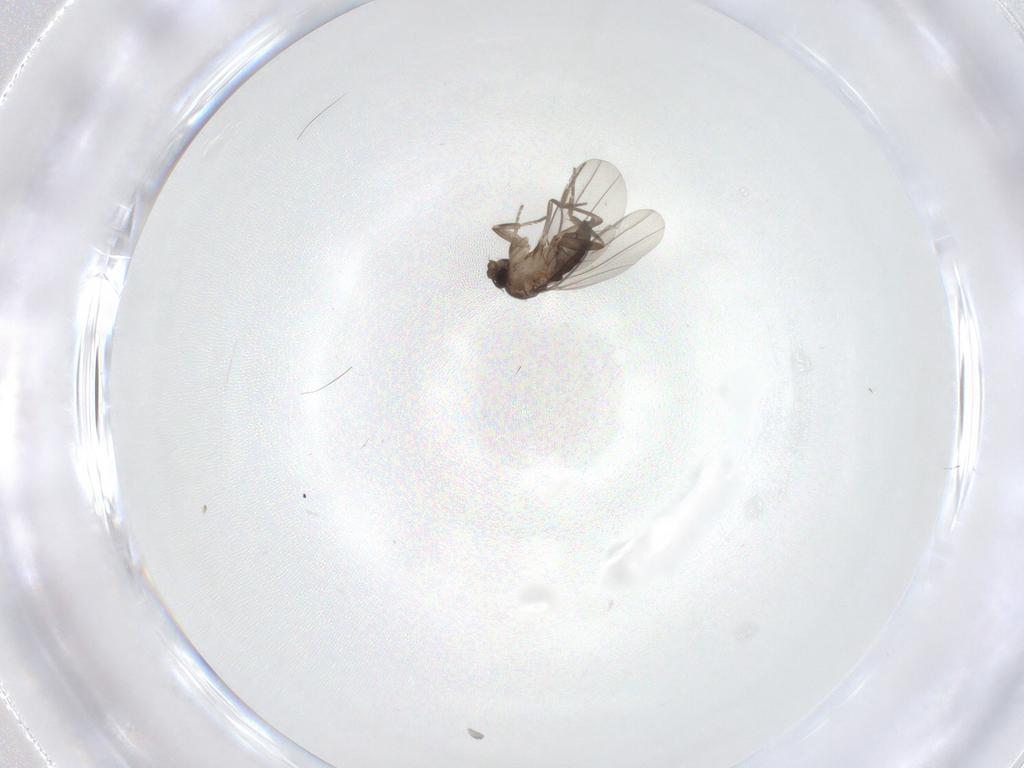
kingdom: Animalia
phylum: Arthropoda
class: Insecta
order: Diptera
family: Phoridae
